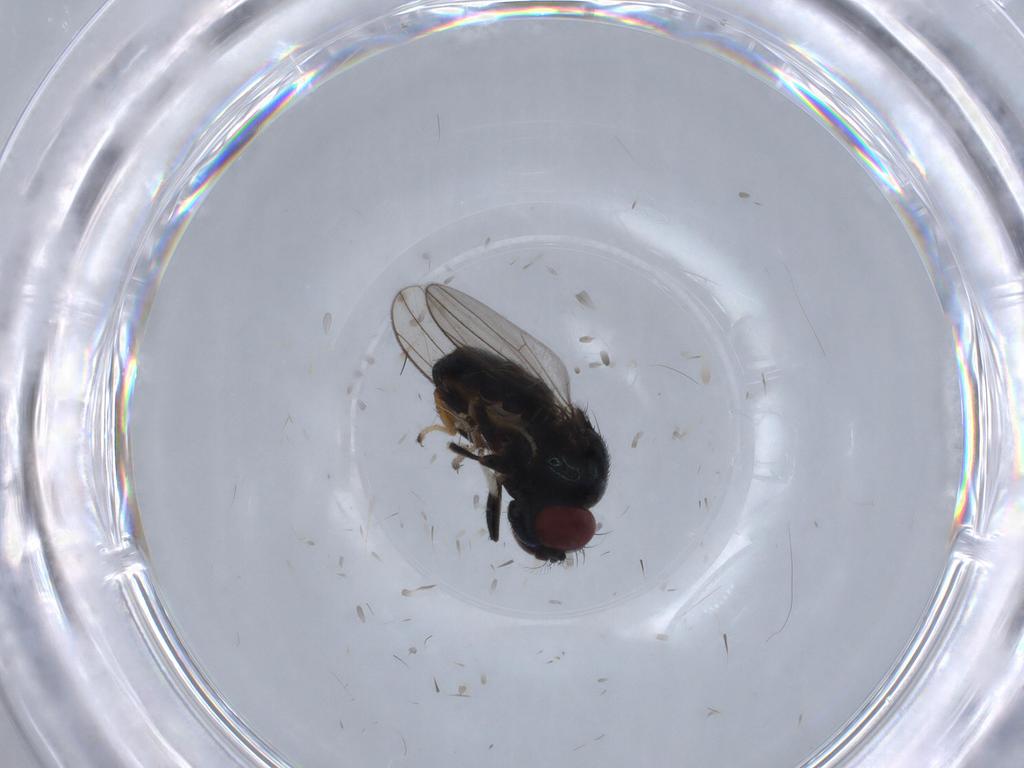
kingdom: Animalia
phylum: Arthropoda
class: Insecta
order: Diptera
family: Ephydridae
